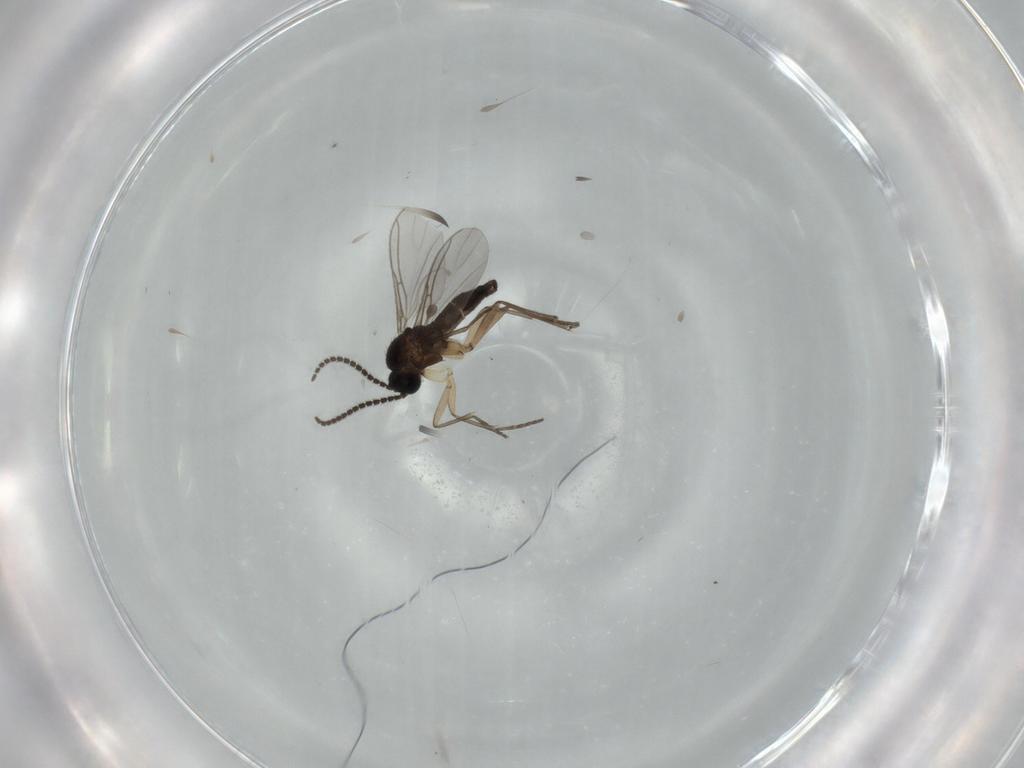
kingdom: Animalia
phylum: Arthropoda
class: Insecta
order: Diptera
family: Sciaridae
